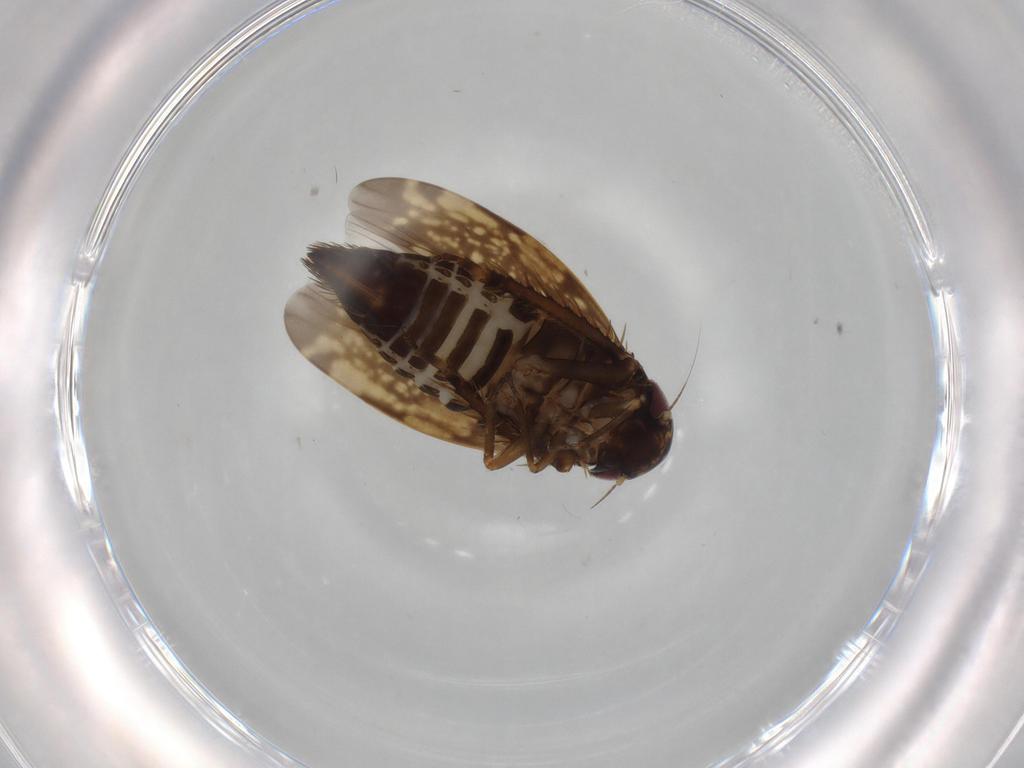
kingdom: Animalia
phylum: Arthropoda
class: Insecta
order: Hemiptera
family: Cicadellidae
